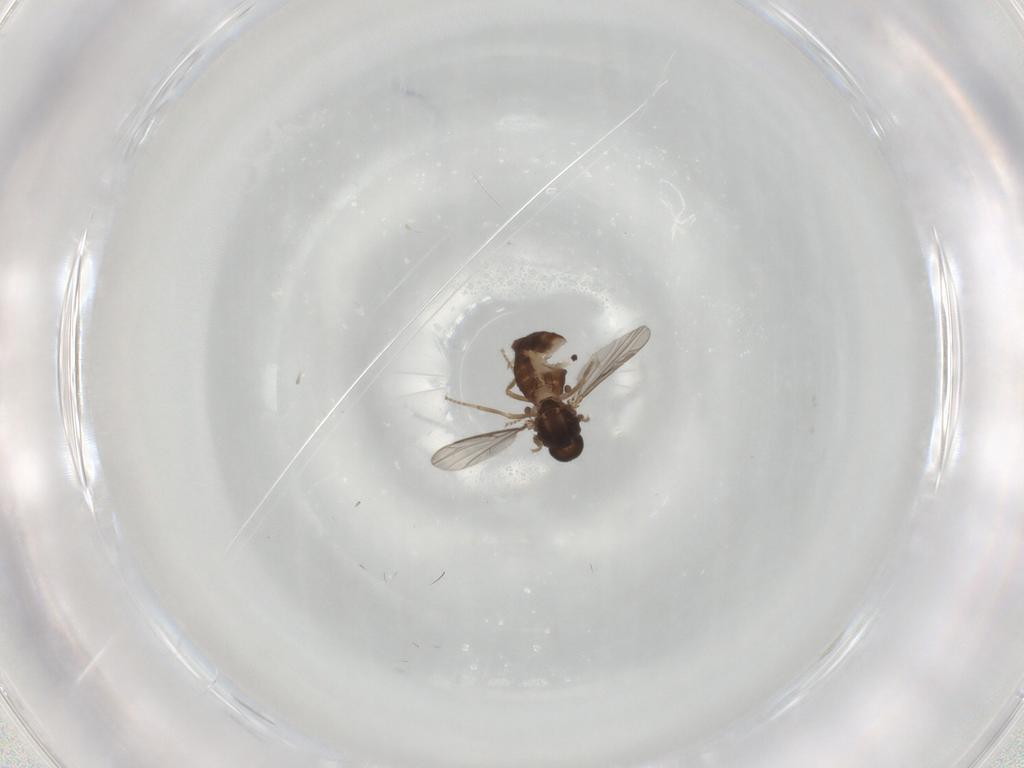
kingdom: Animalia
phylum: Arthropoda
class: Insecta
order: Diptera
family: Ceratopogonidae
